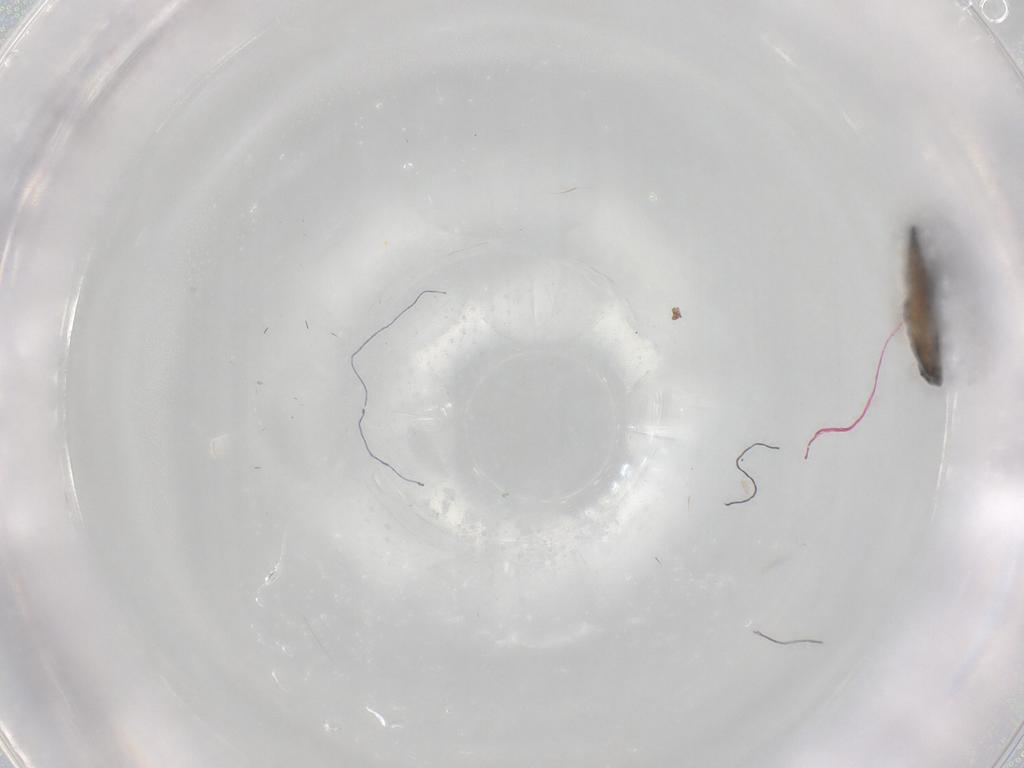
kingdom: Animalia
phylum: Arthropoda
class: Insecta
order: Lepidoptera
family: Nepticulidae
